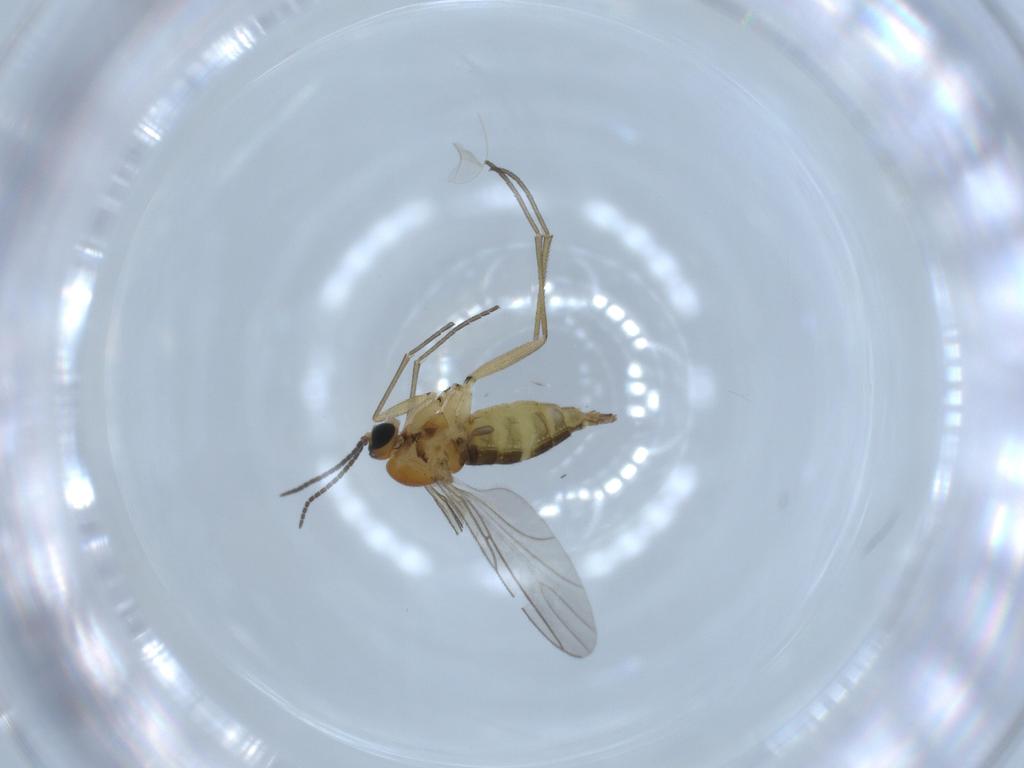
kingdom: Animalia
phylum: Arthropoda
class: Insecta
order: Diptera
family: Sciaridae
